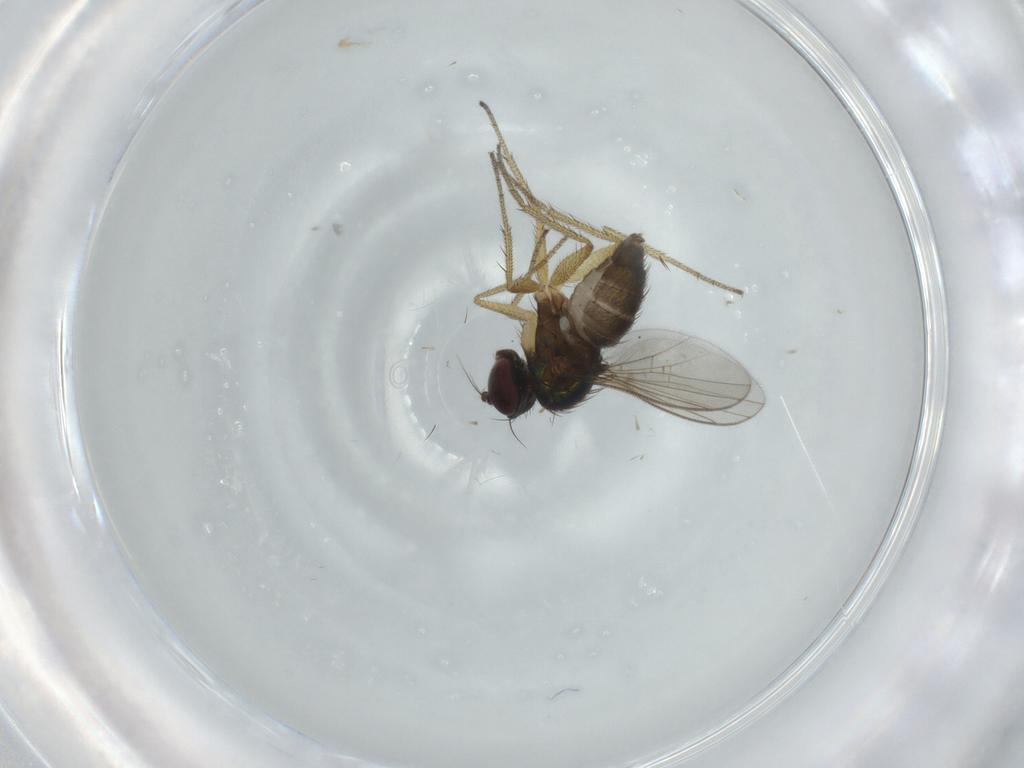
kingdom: Animalia
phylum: Arthropoda
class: Insecta
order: Diptera
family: Dolichopodidae
